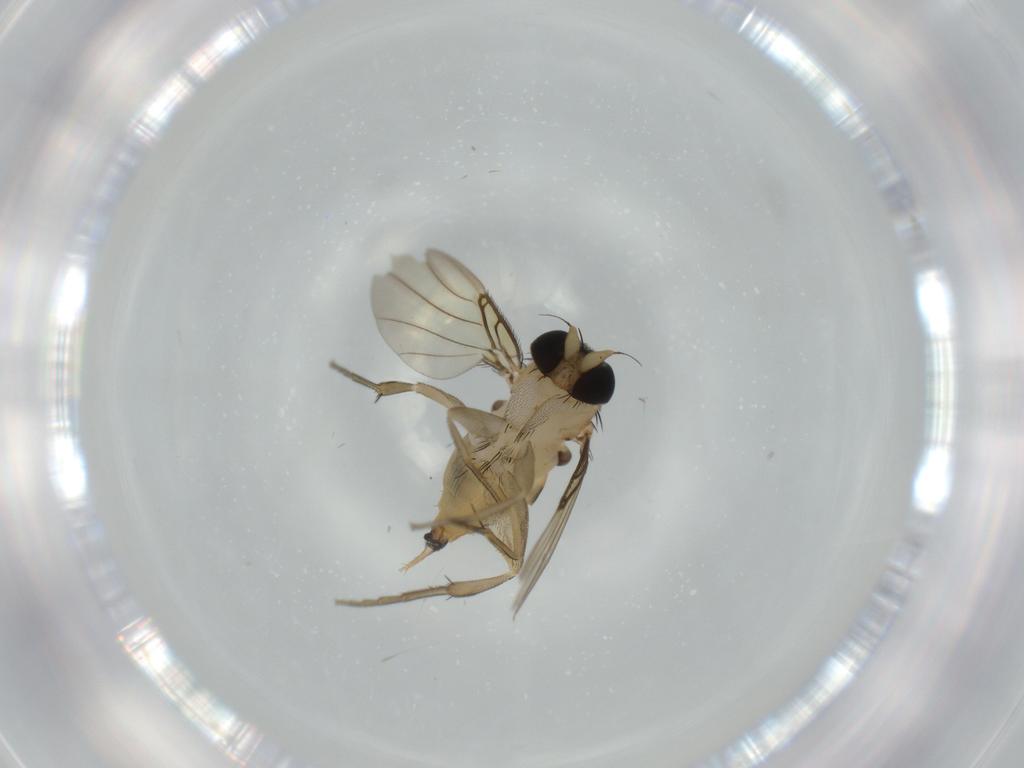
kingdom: Animalia
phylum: Arthropoda
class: Insecta
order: Diptera
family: Phoridae
